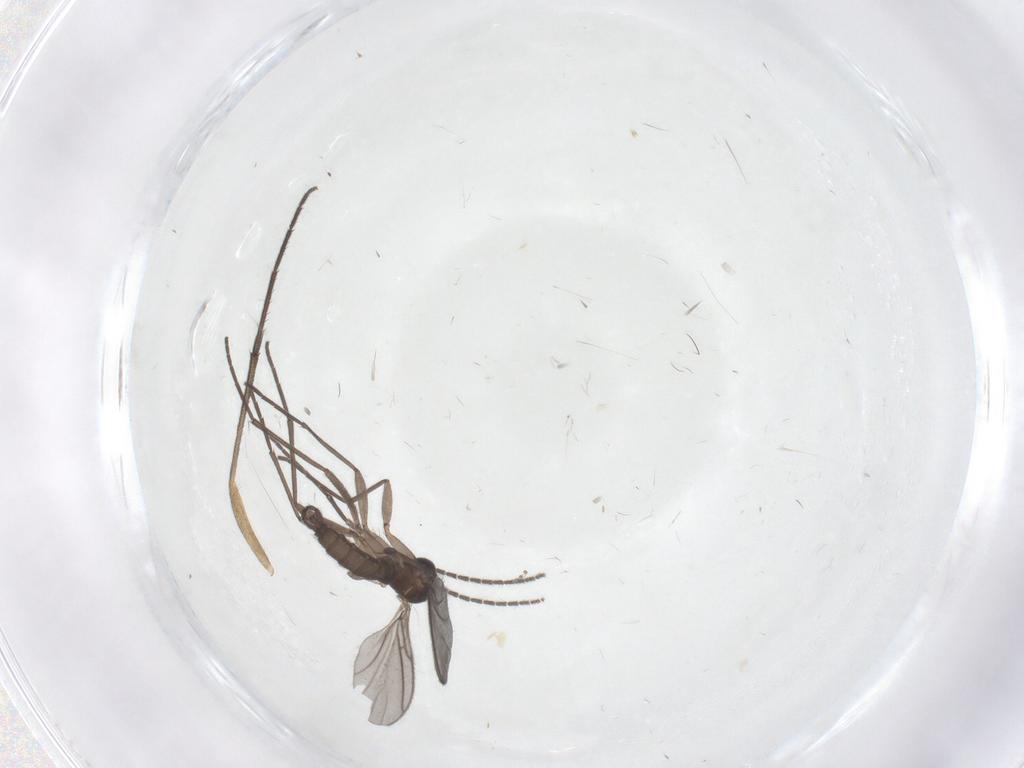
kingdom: Animalia
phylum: Arthropoda
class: Insecta
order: Diptera
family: Mycetophilidae
